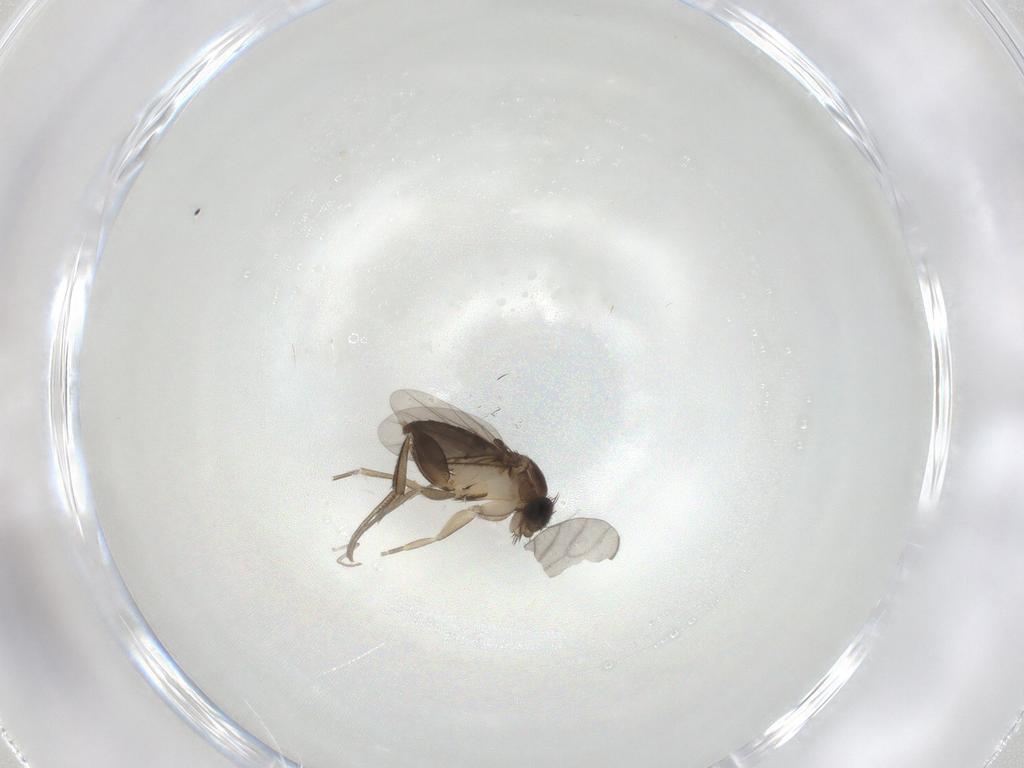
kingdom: Animalia
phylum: Arthropoda
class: Insecta
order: Diptera
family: Phoridae
